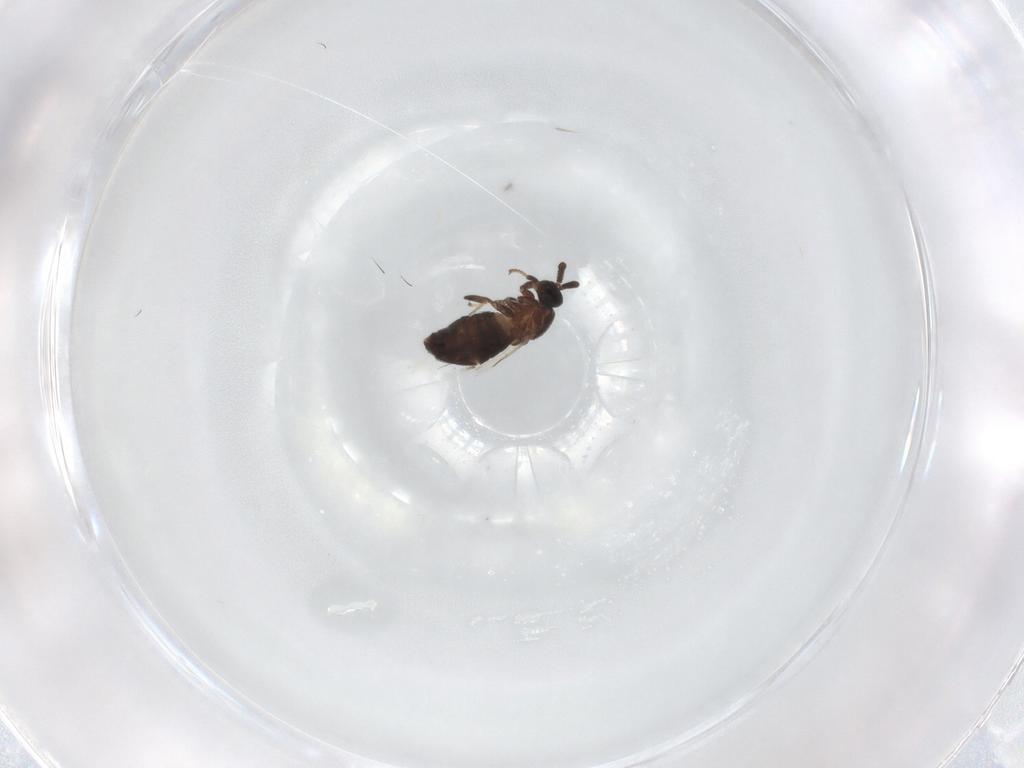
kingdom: Animalia
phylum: Arthropoda
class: Insecta
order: Diptera
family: Scatopsidae
